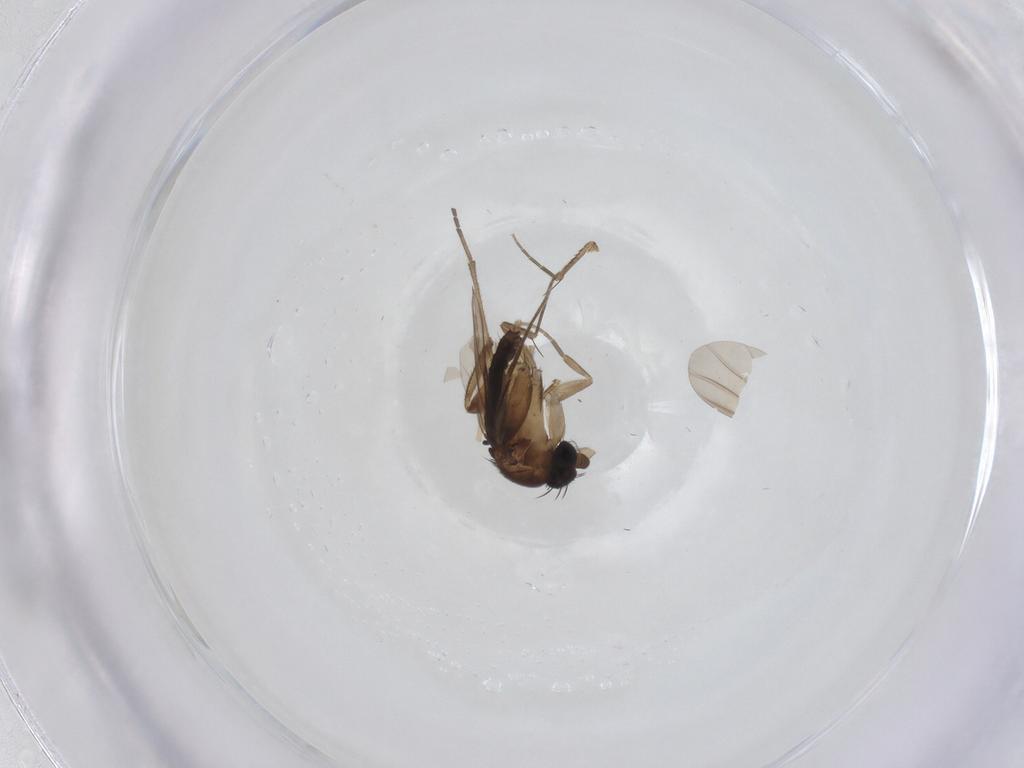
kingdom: Animalia
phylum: Arthropoda
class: Insecta
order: Diptera
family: Phoridae
